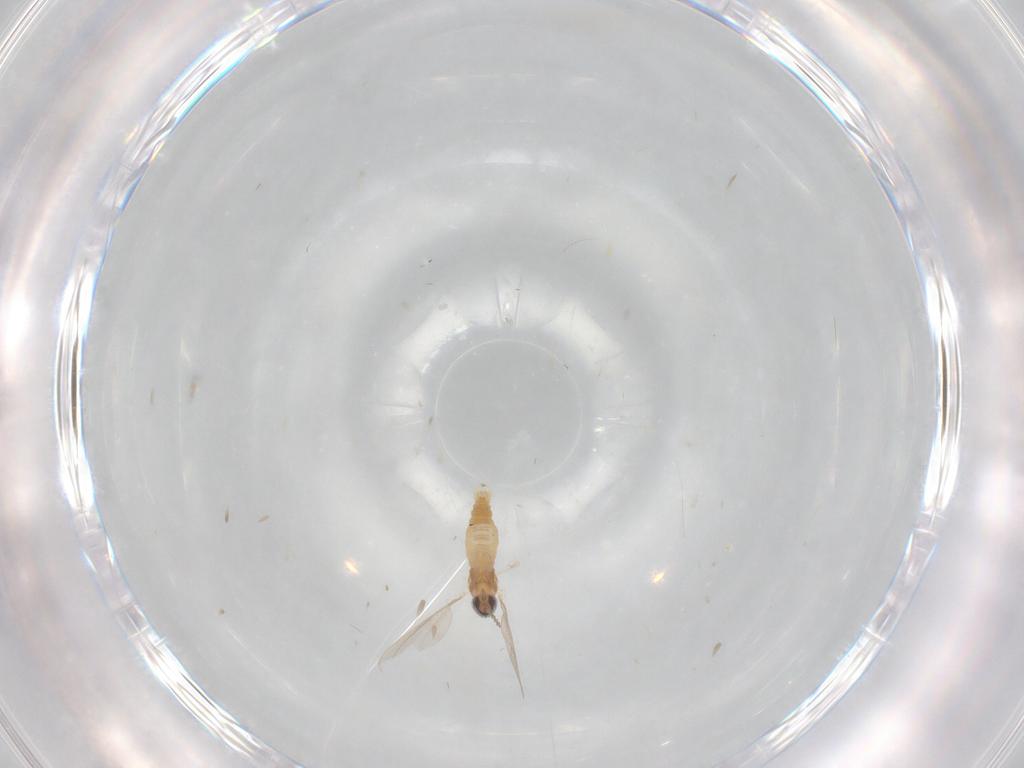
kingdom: Animalia
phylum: Arthropoda
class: Insecta
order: Diptera
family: Cecidomyiidae
